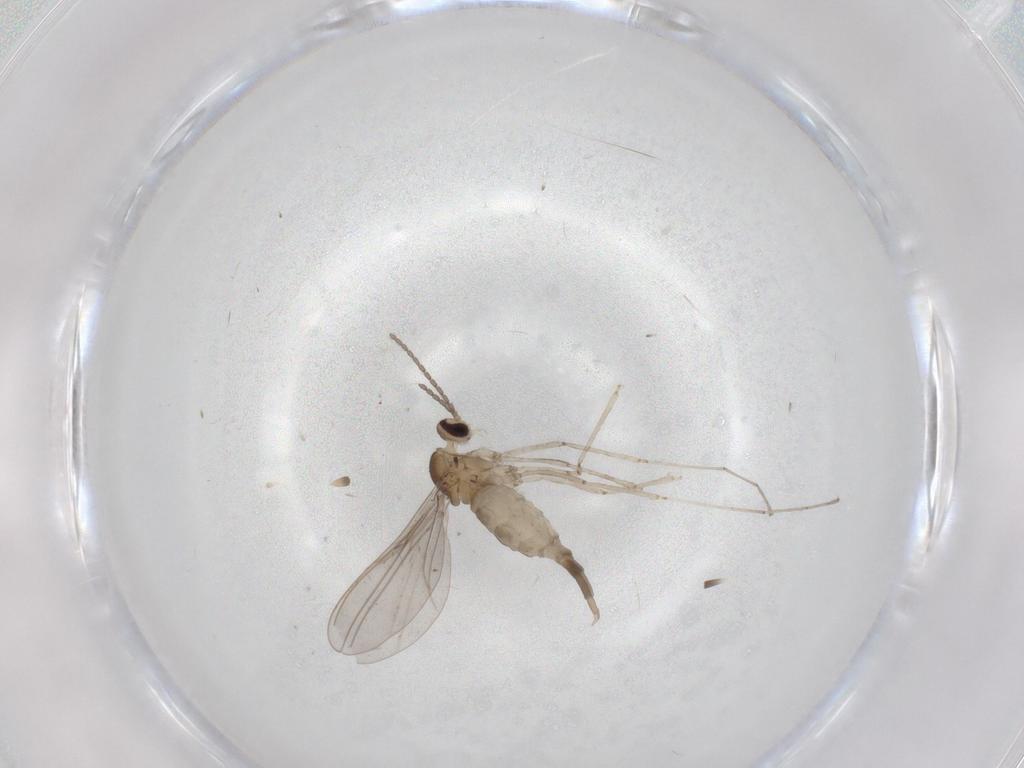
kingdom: Animalia
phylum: Arthropoda
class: Insecta
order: Diptera
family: Cecidomyiidae
